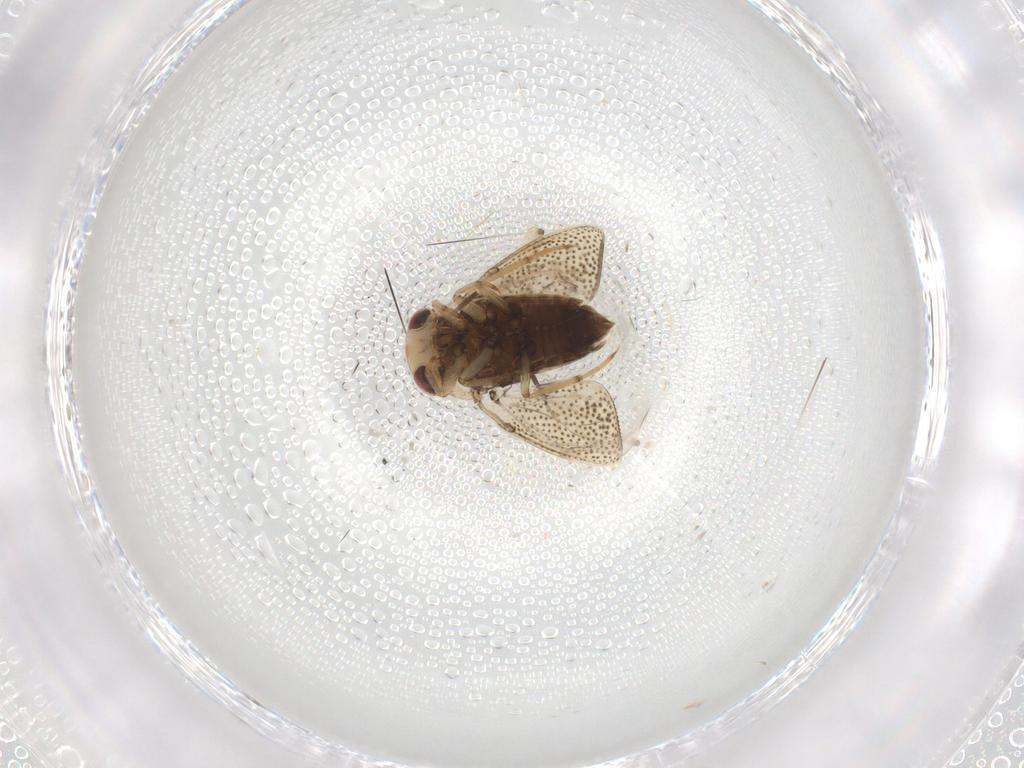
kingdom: Animalia
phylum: Arthropoda
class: Insecta
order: Hemiptera
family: Pleidae
